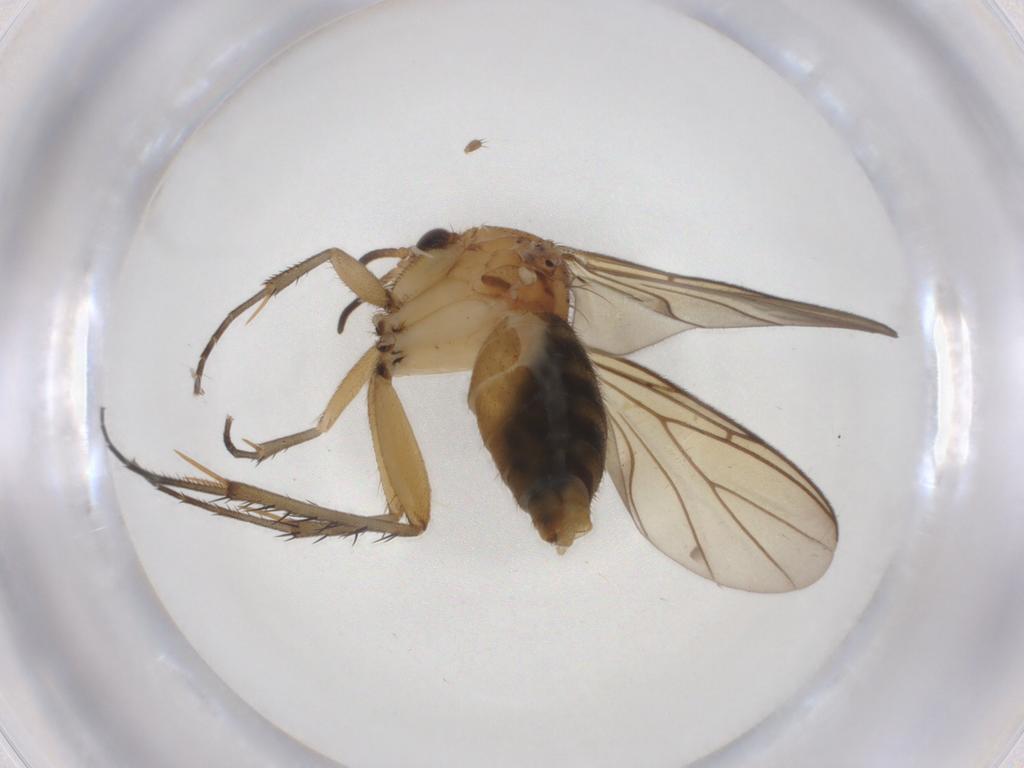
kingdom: Animalia
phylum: Arthropoda
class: Insecta
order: Diptera
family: Mycetophilidae
